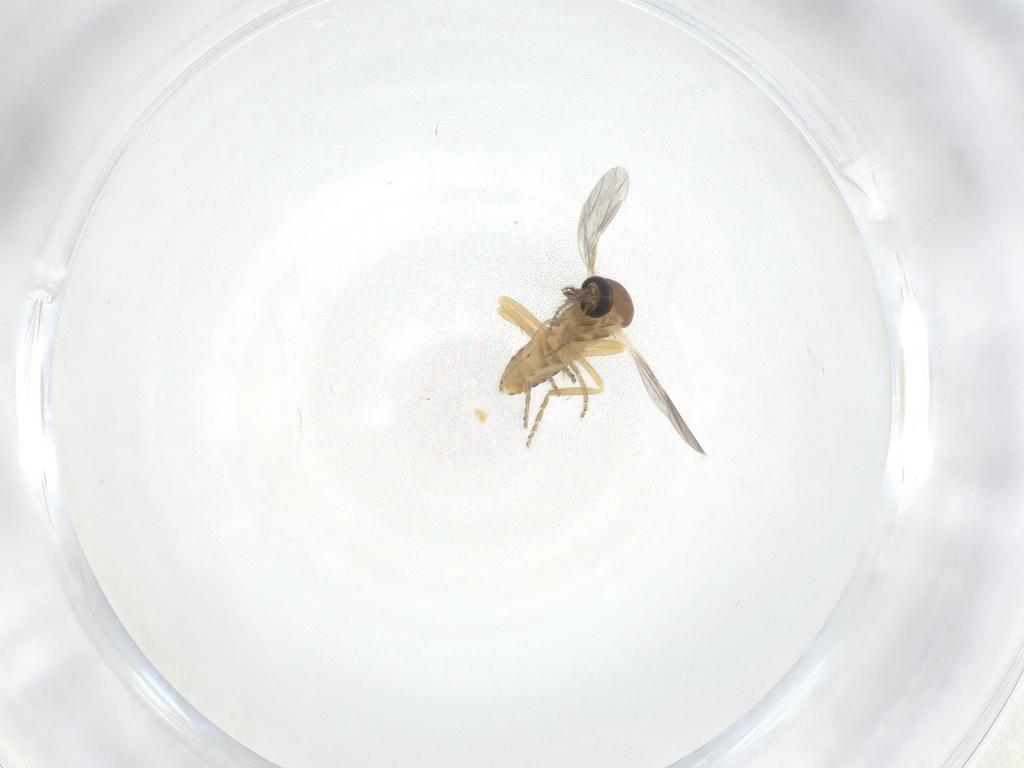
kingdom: Animalia
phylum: Arthropoda
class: Insecta
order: Diptera
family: Ceratopogonidae
